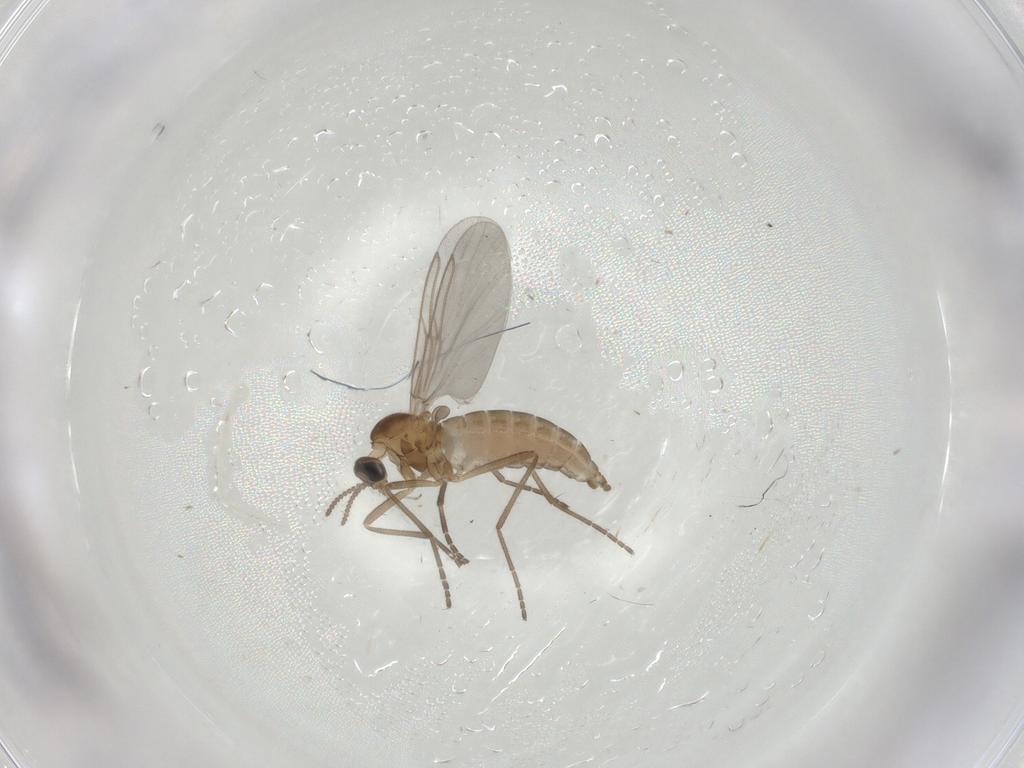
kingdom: Animalia
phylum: Arthropoda
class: Insecta
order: Diptera
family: Cecidomyiidae
